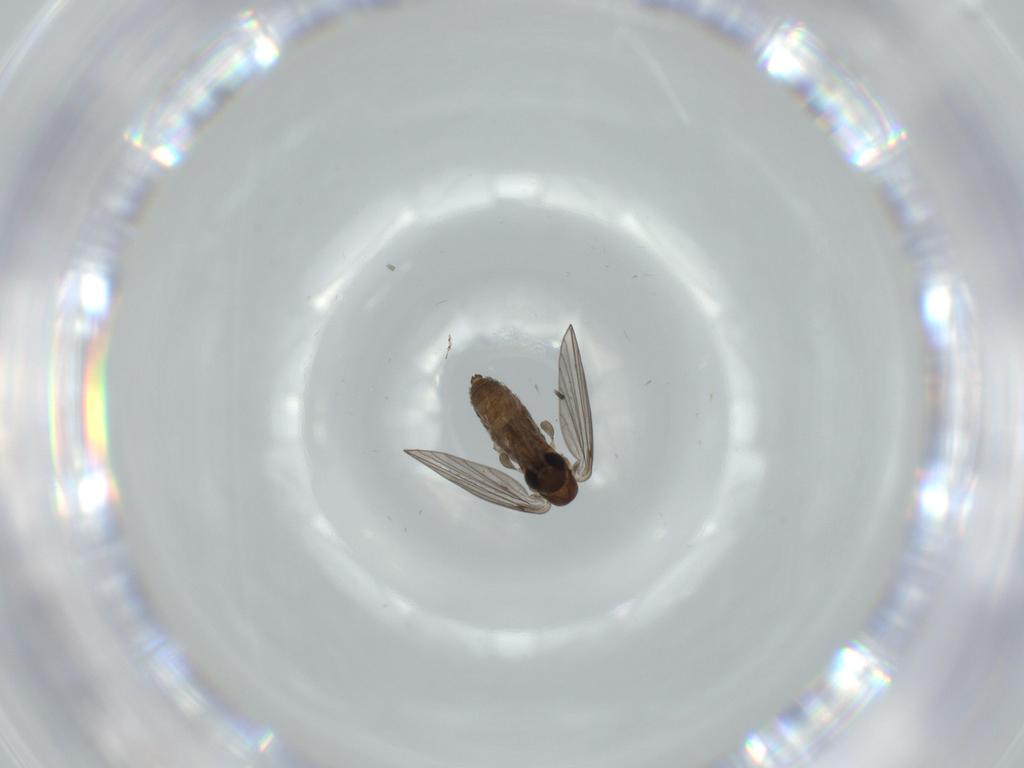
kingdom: Animalia
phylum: Arthropoda
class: Insecta
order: Diptera
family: Psychodidae
